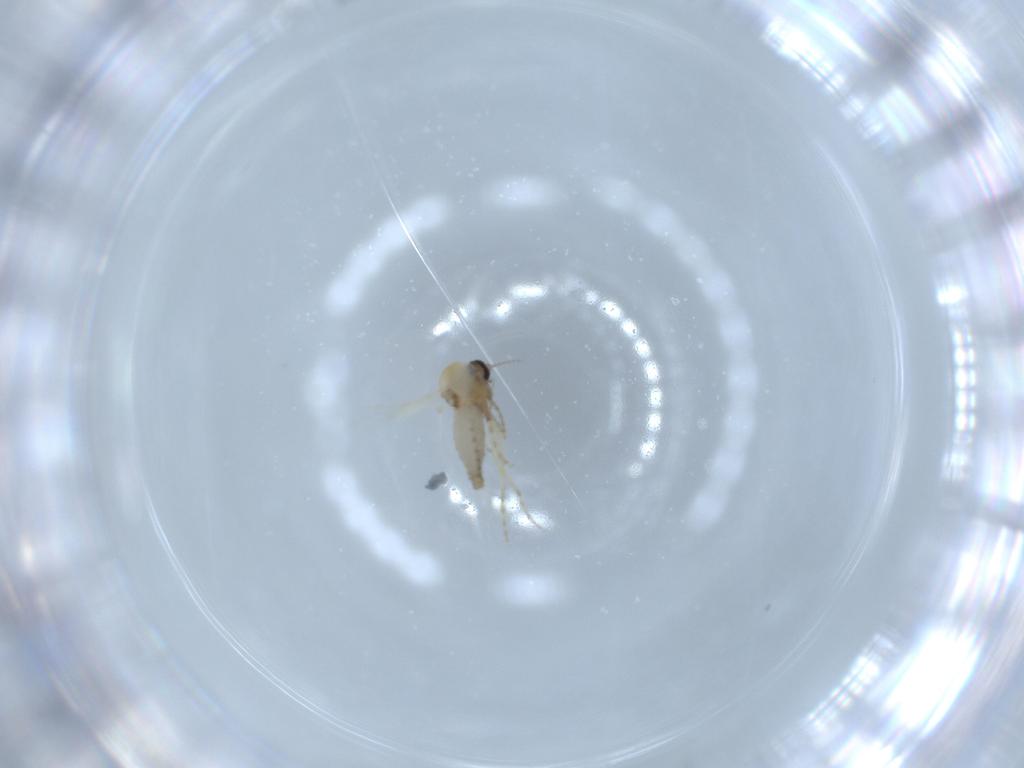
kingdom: Animalia
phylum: Arthropoda
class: Insecta
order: Diptera
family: Ceratopogonidae
